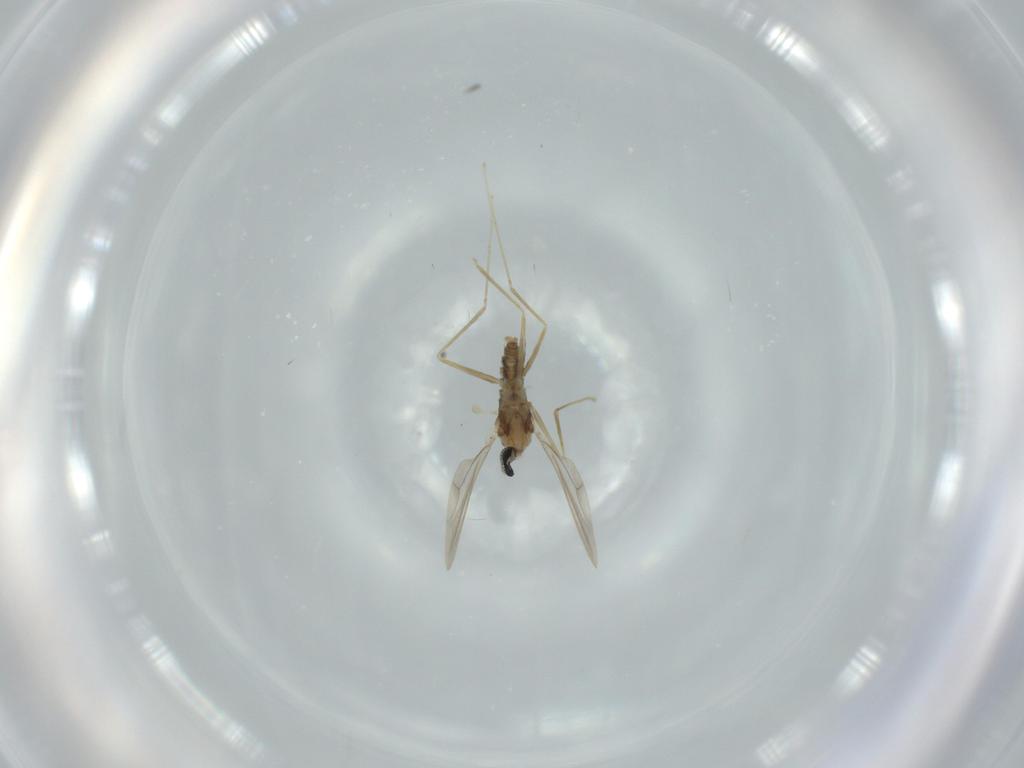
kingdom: Animalia
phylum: Arthropoda
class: Insecta
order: Diptera
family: Cecidomyiidae
